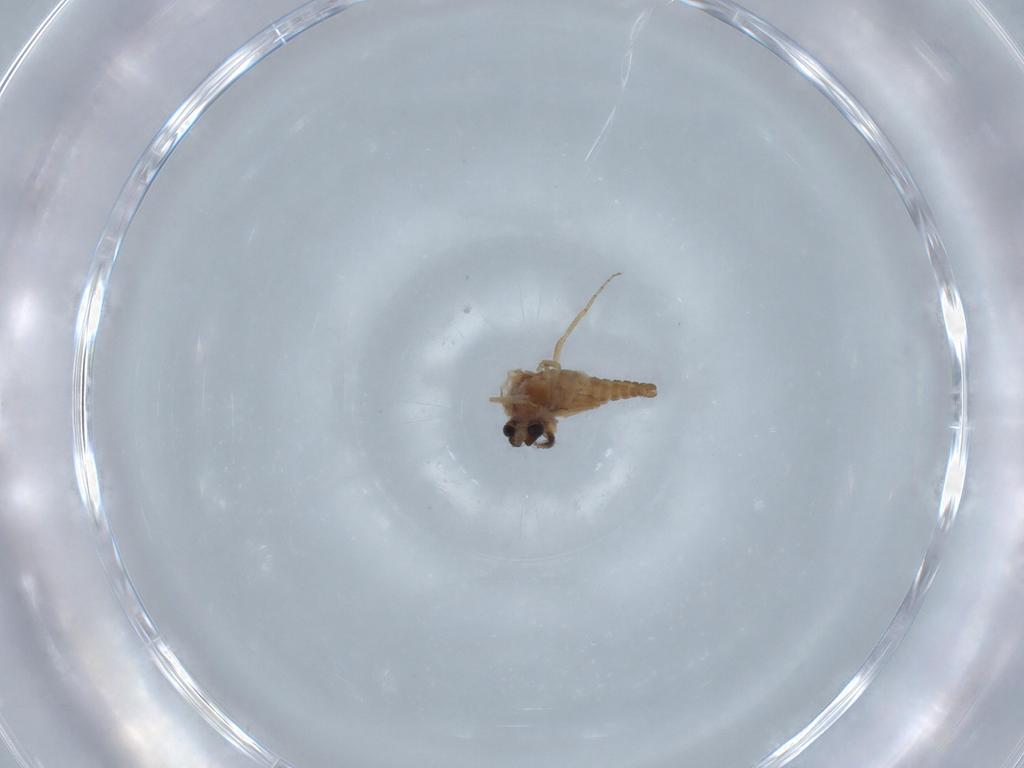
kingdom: Animalia
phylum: Arthropoda
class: Insecta
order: Diptera
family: Ceratopogonidae
